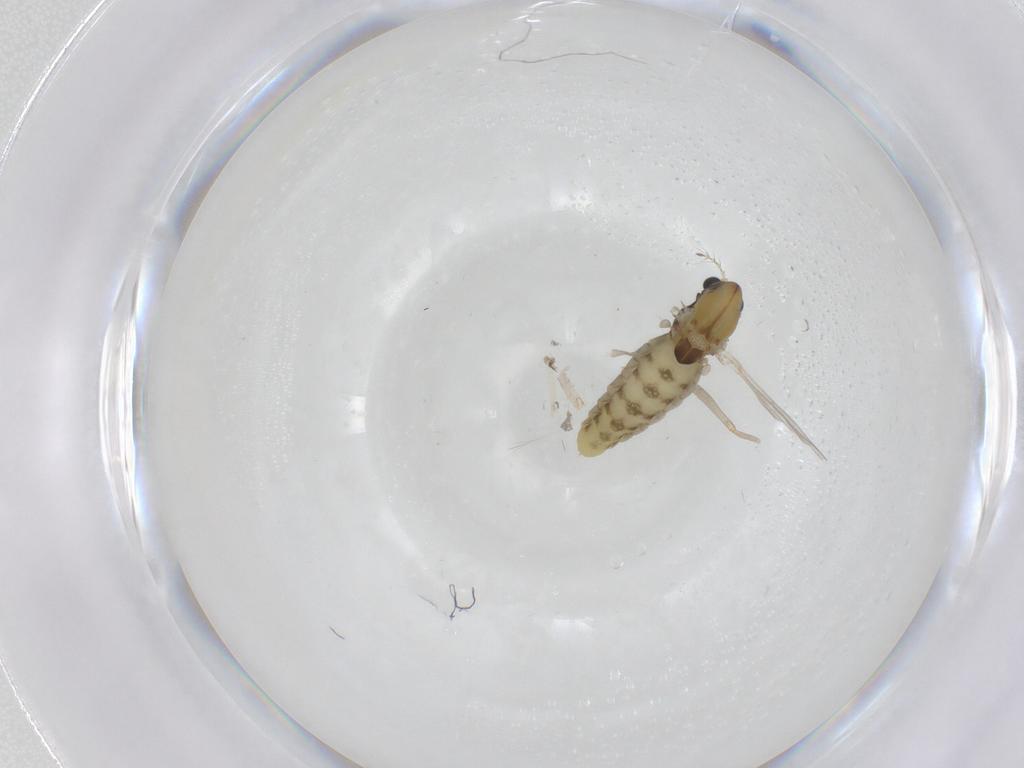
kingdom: Animalia
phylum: Arthropoda
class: Insecta
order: Diptera
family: Chironomidae
